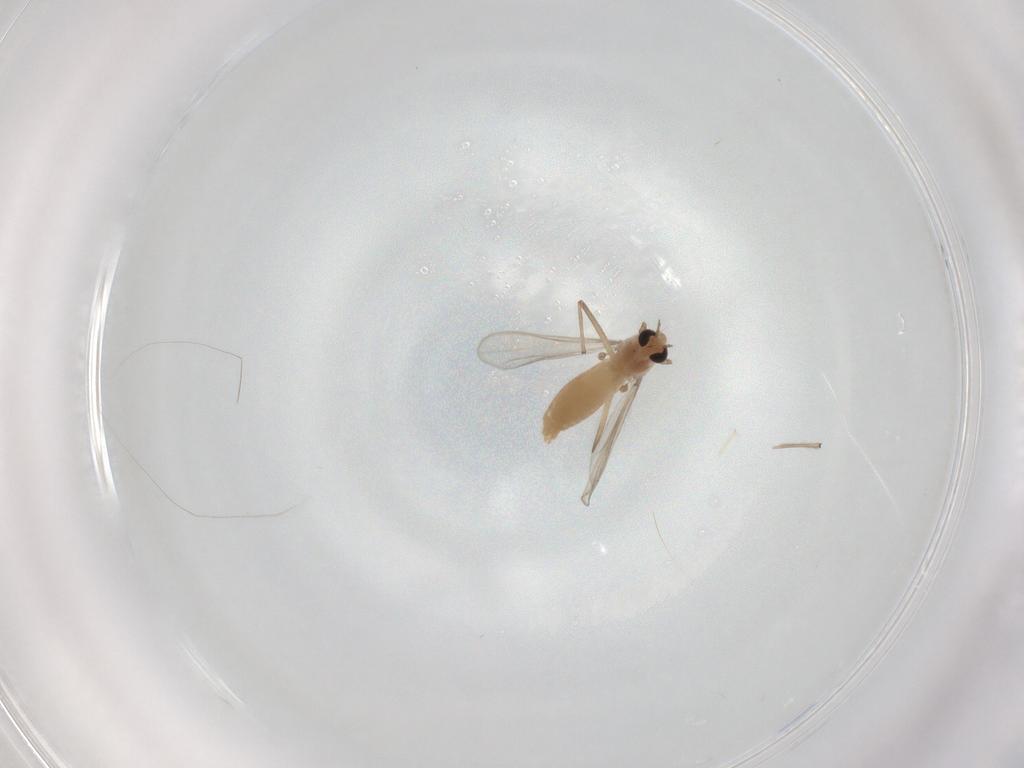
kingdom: Animalia
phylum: Arthropoda
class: Insecta
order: Diptera
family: Chironomidae
